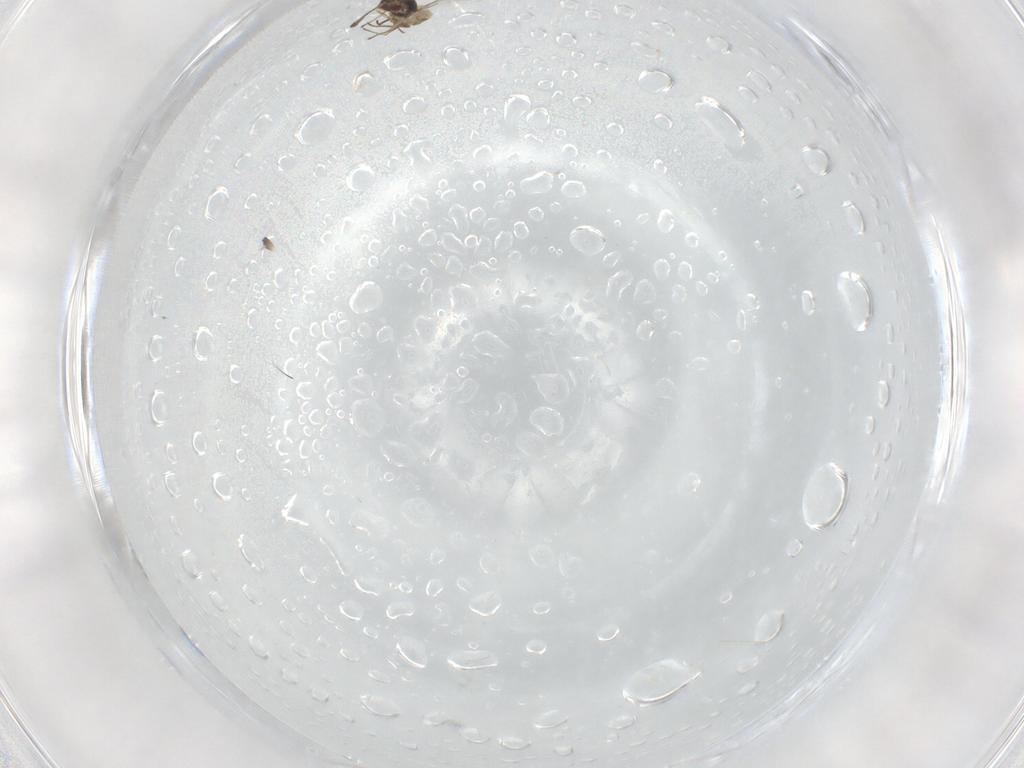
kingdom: Animalia
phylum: Arthropoda
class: Insecta
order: Hymenoptera
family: Mymaridae
